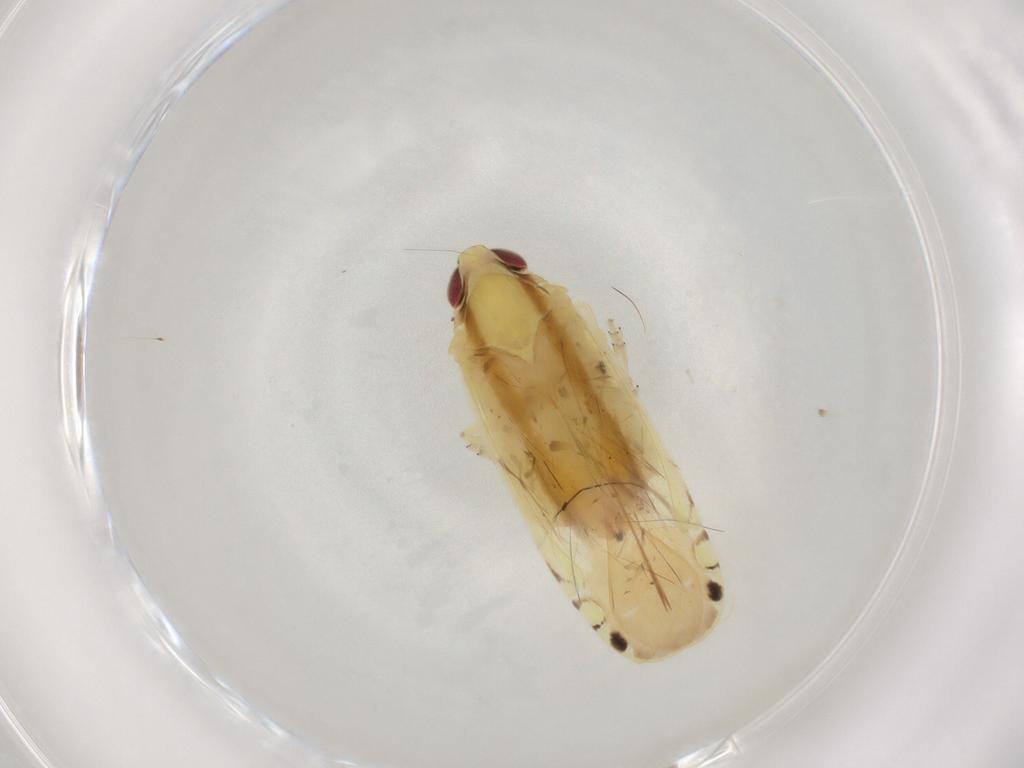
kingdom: Animalia
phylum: Arthropoda
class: Insecta
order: Hemiptera
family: Achilidae
